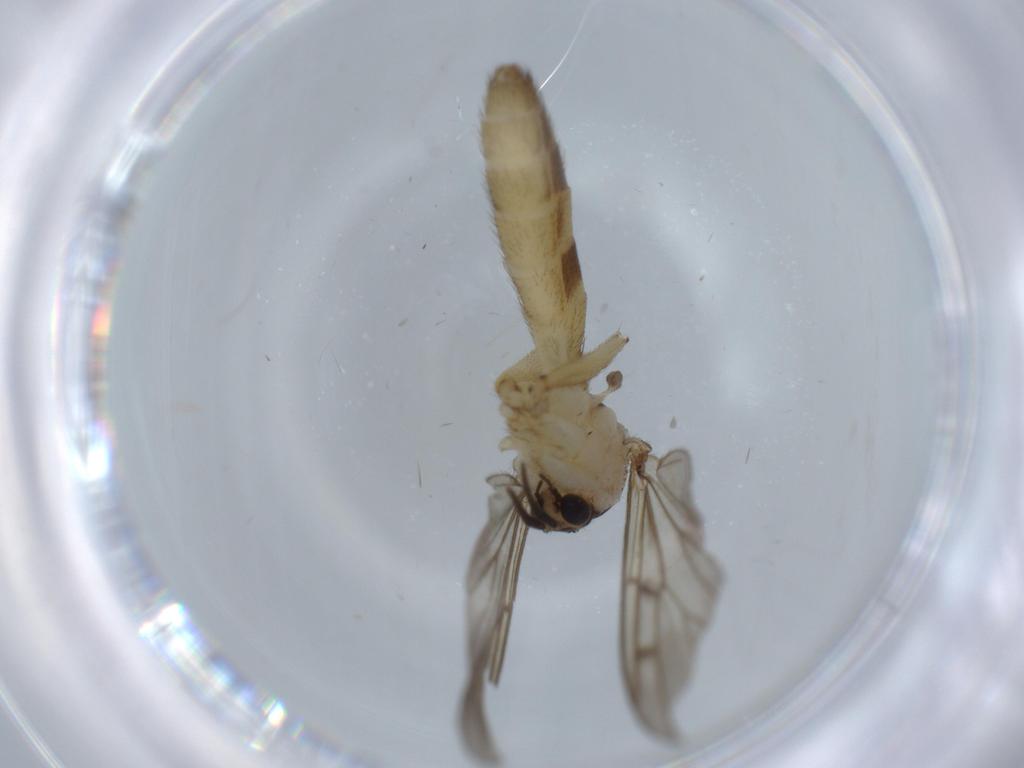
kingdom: Animalia
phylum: Arthropoda
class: Insecta
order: Diptera
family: Mycetophilidae
